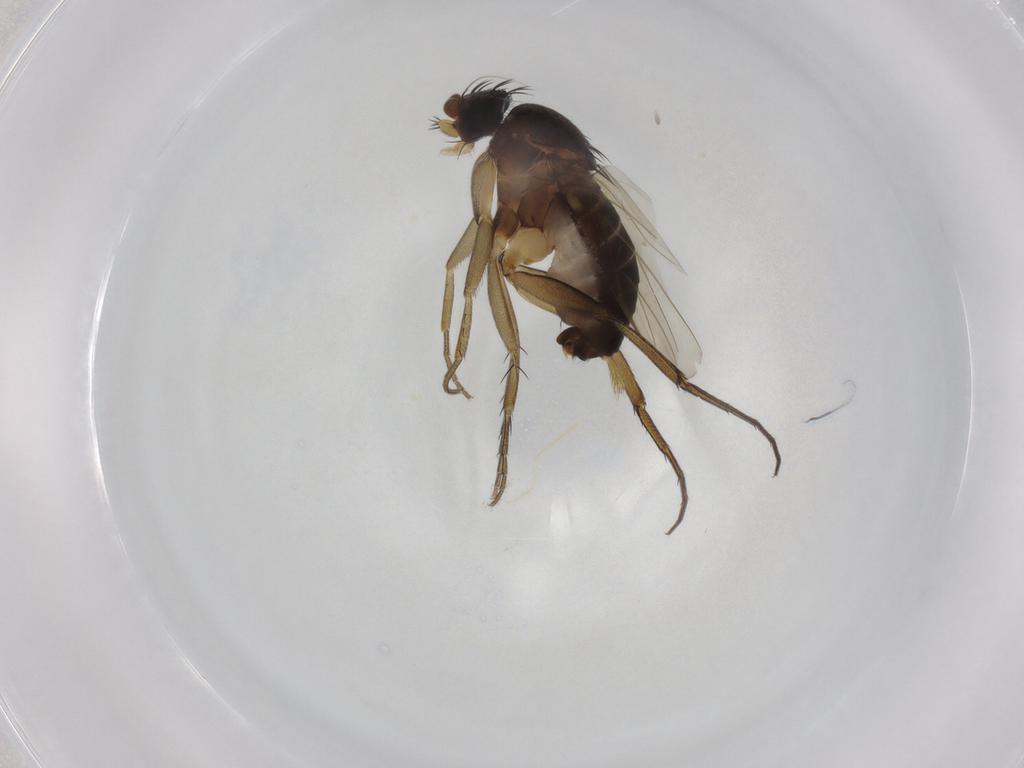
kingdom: Animalia
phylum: Arthropoda
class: Insecta
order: Diptera
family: Phoridae
